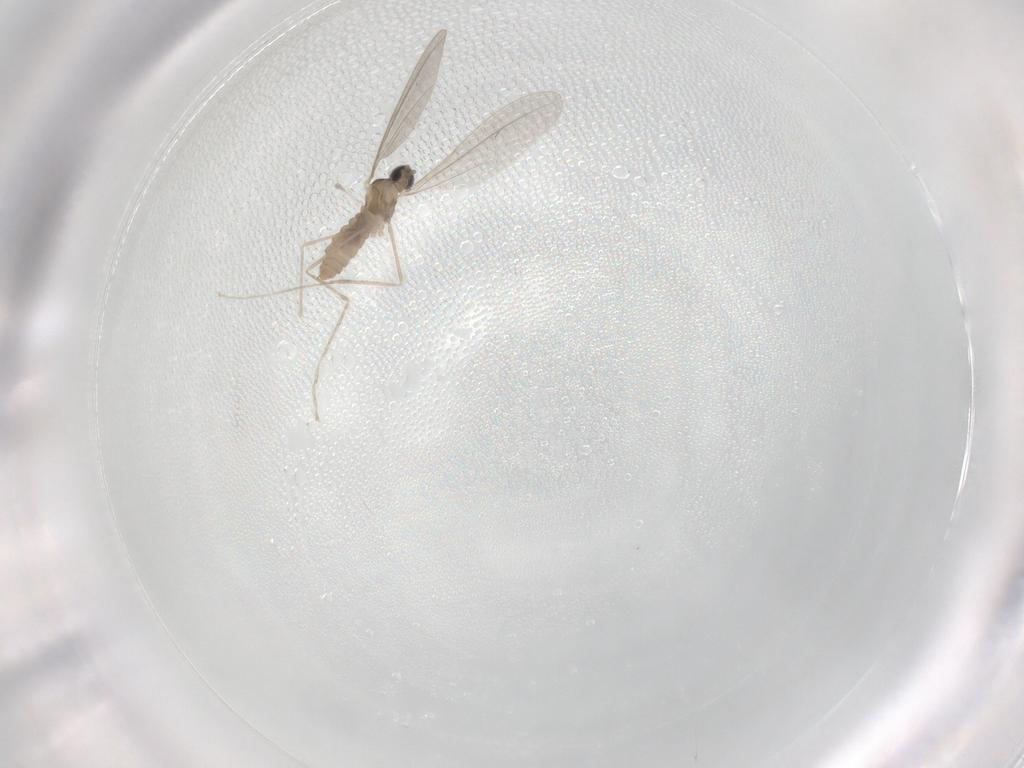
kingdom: Animalia
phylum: Arthropoda
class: Insecta
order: Diptera
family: Cecidomyiidae
